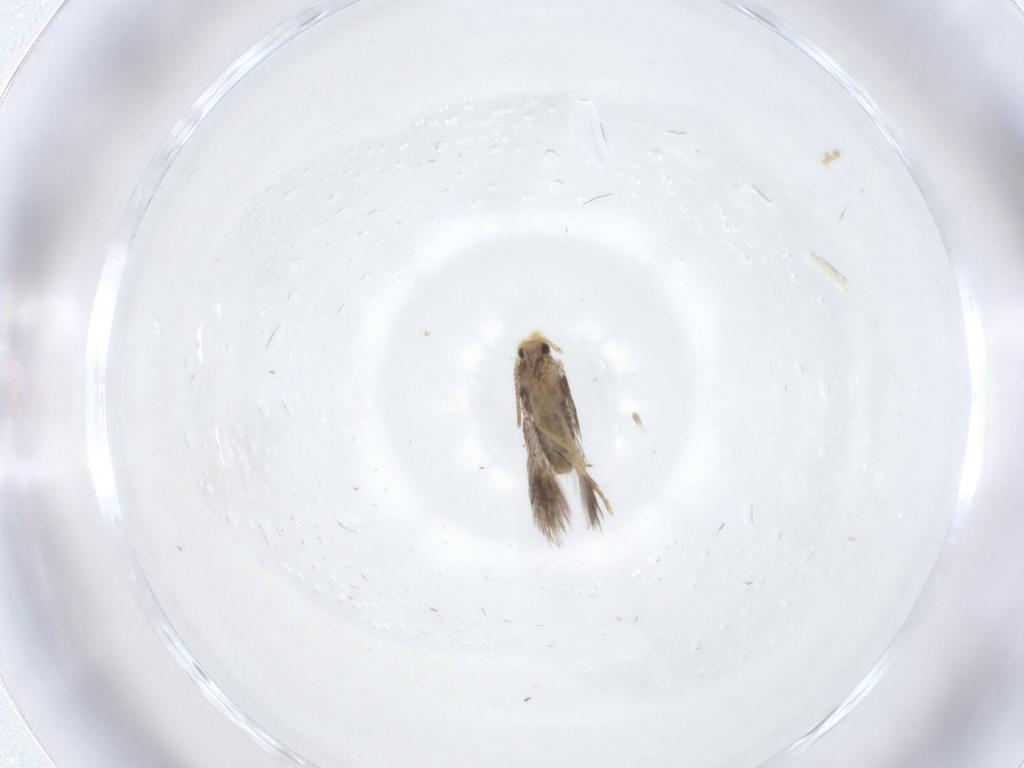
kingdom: Animalia
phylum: Arthropoda
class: Insecta
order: Lepidoptera
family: Nepticulidae
